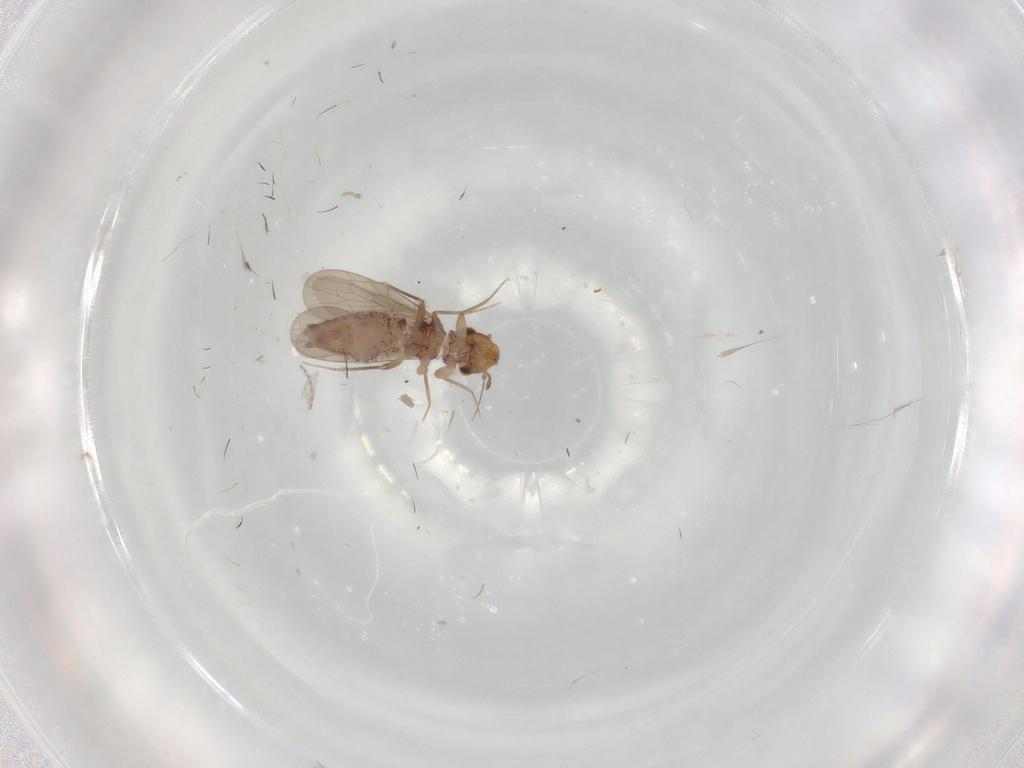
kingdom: Animalia
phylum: Arthropoda
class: Insecta
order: Psocodea
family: Lepidopsocidae
